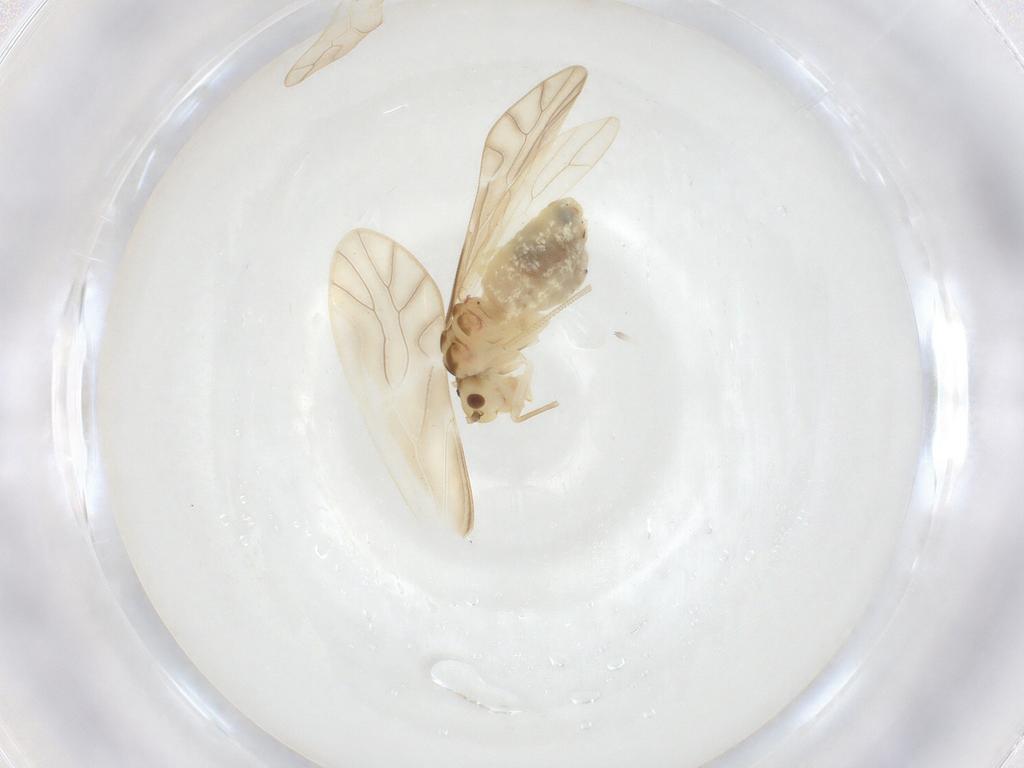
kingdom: Animalia
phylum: Arthropoda
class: Insecta
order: Psocodea
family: Caeciliusidae
